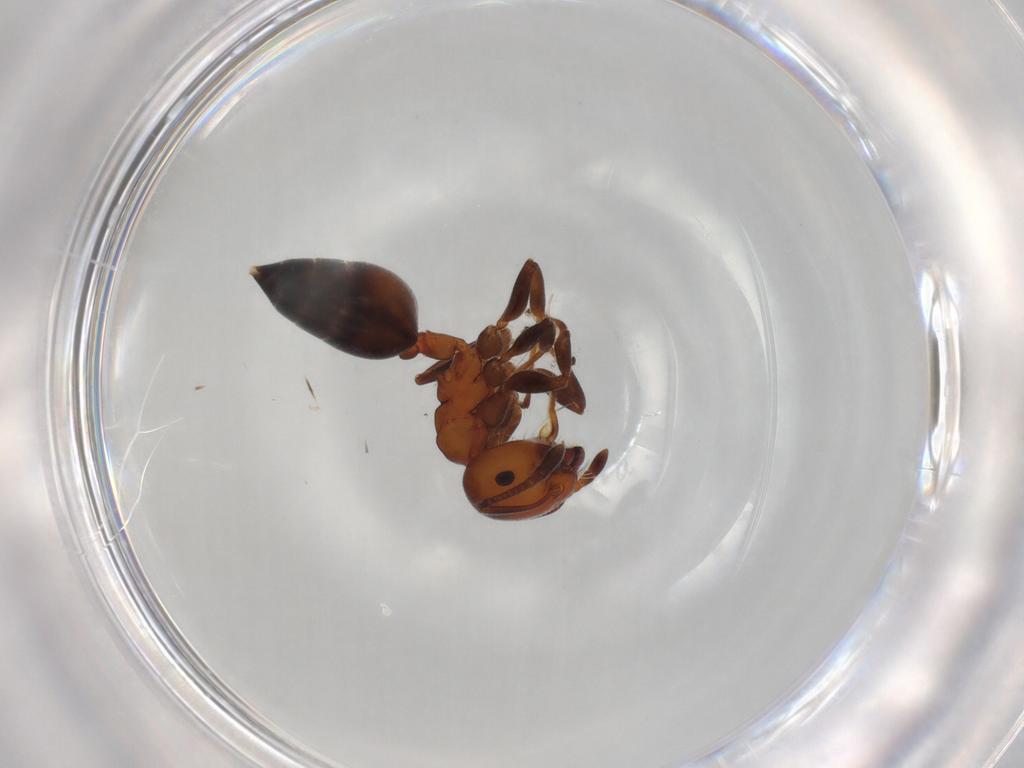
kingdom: Animalia
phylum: Arthropoda
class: Insecta
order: Hymenoptera
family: Formicidae
